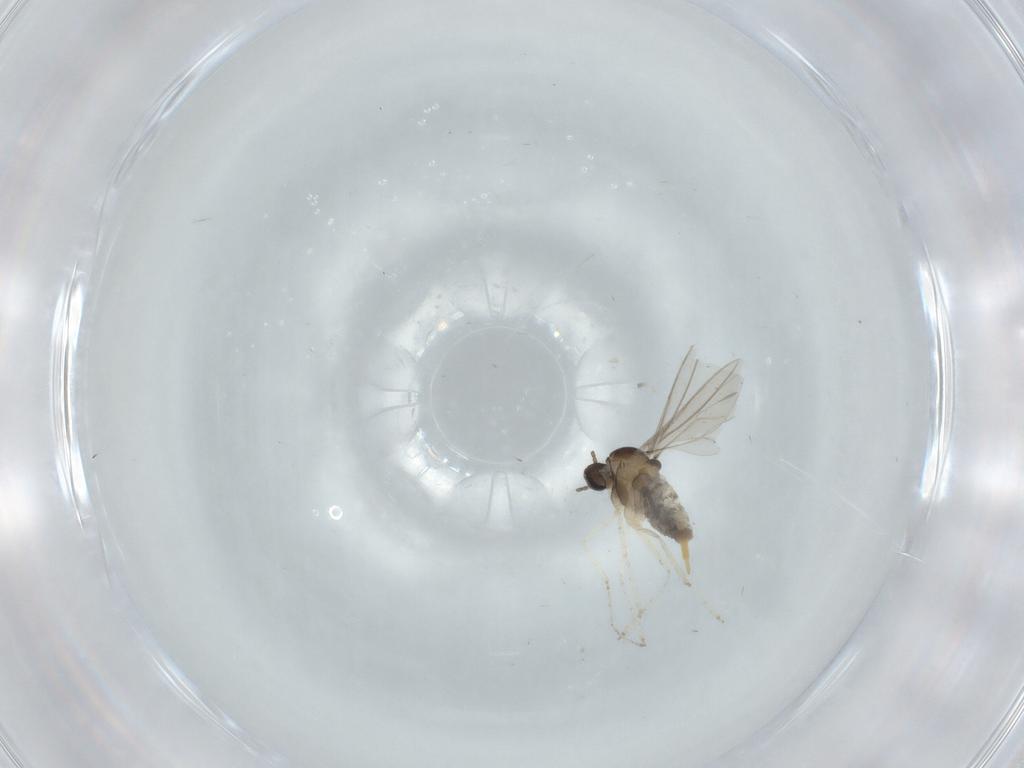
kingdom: Animalia
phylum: Arthropoda
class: Insecta
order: Diptera
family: Cecidomyiidae
